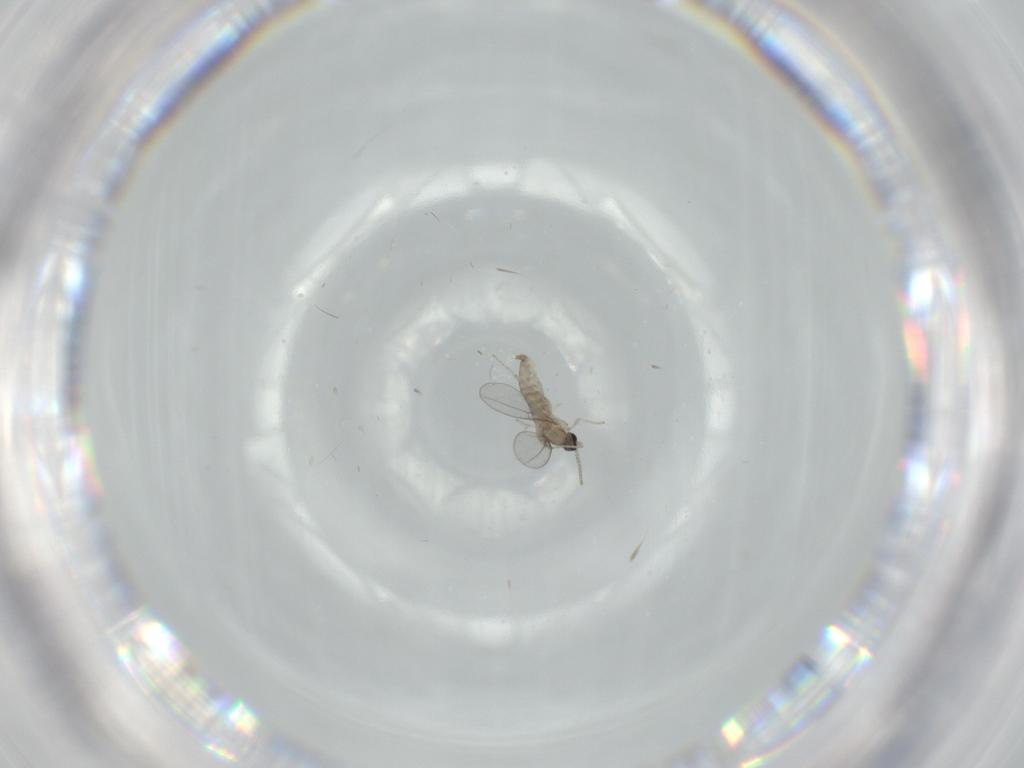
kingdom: Animalia
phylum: Arthropoda
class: Insecta
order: Diptera
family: Cecidomyiidae
